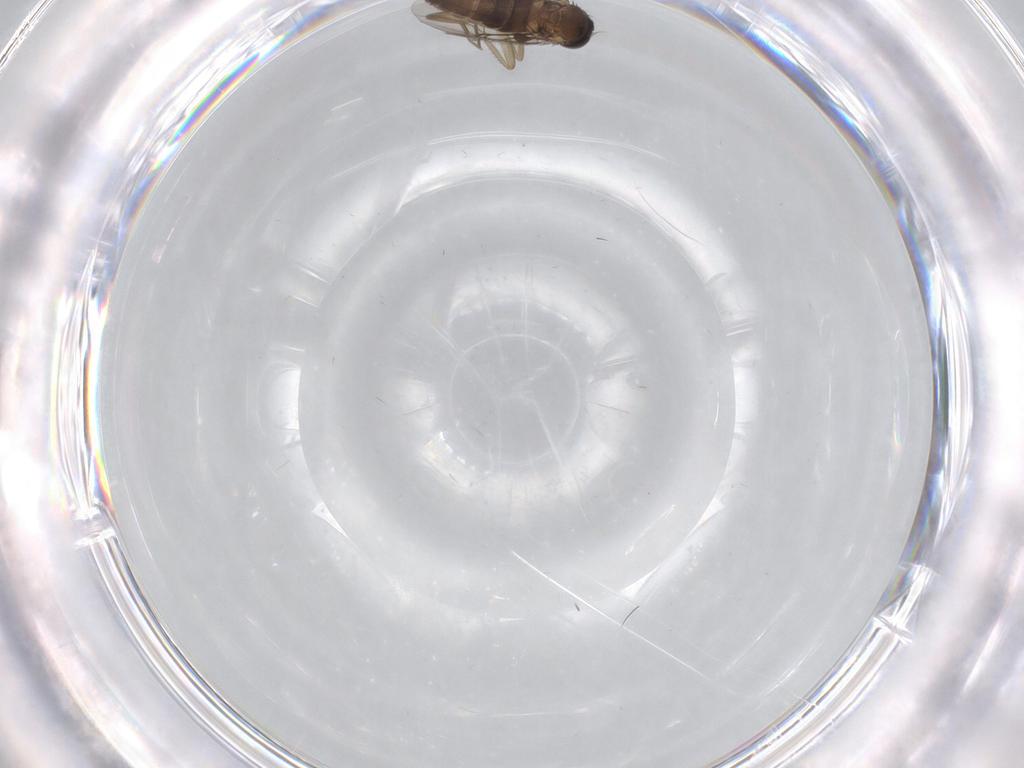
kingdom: Animalia
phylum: Arthropoda
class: Insecta
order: Diptera
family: Phoridae
